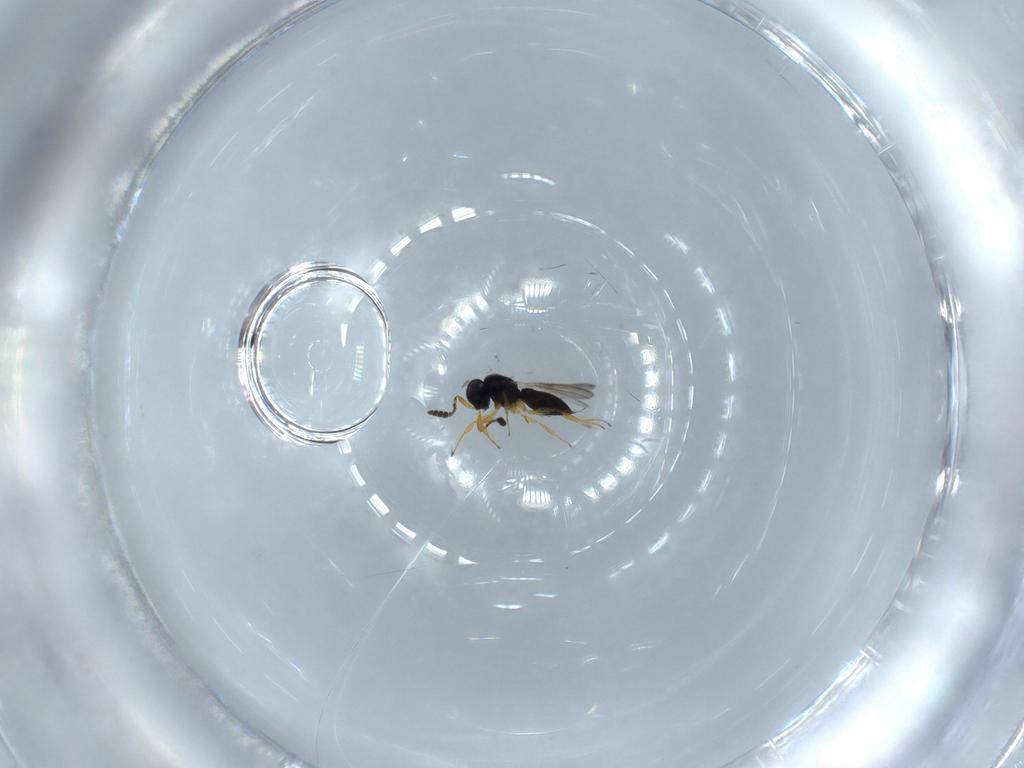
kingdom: Animalia
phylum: Arthropoda
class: Insecta
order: Hymenoptera
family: Scelionidae
